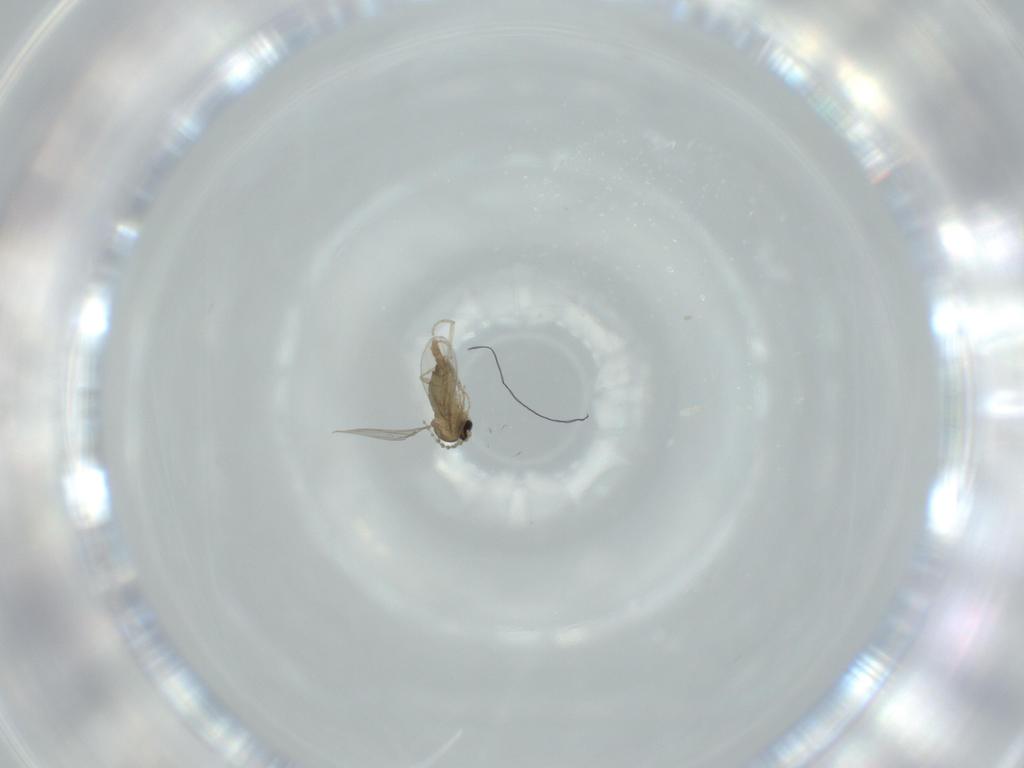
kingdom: Animalia
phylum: Arthropoda
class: Insecta
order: Diptera
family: Cecidomyiidae
